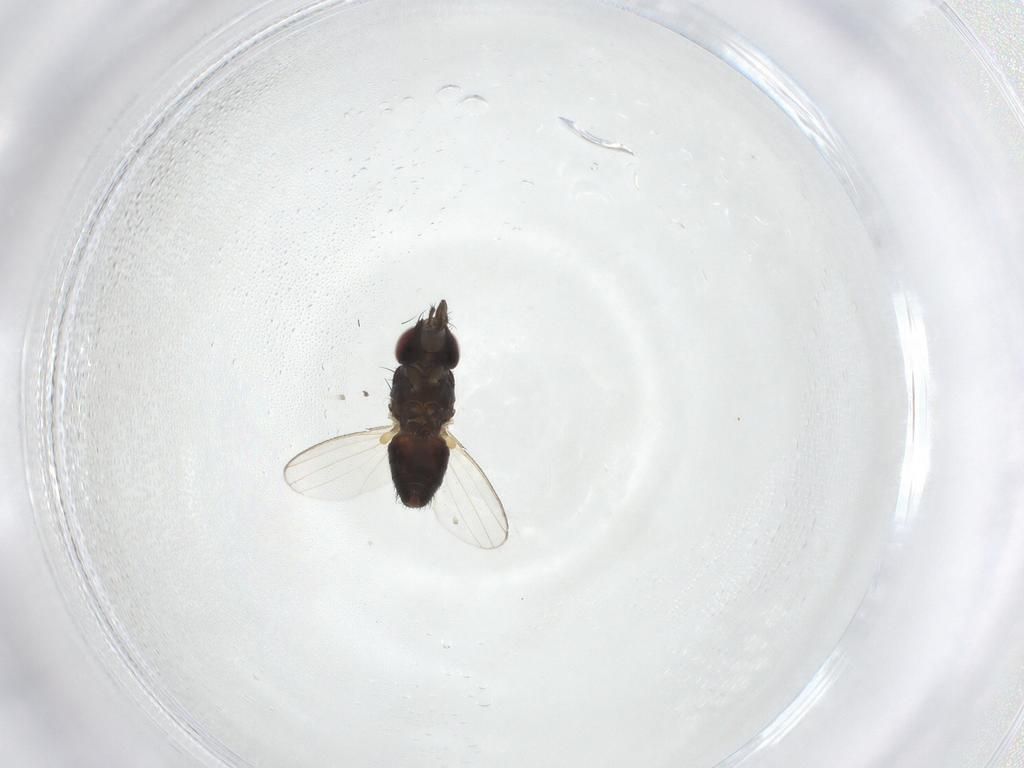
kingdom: Animalia
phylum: Arthropoda
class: Insecta
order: Diptera
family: Milichiidae
